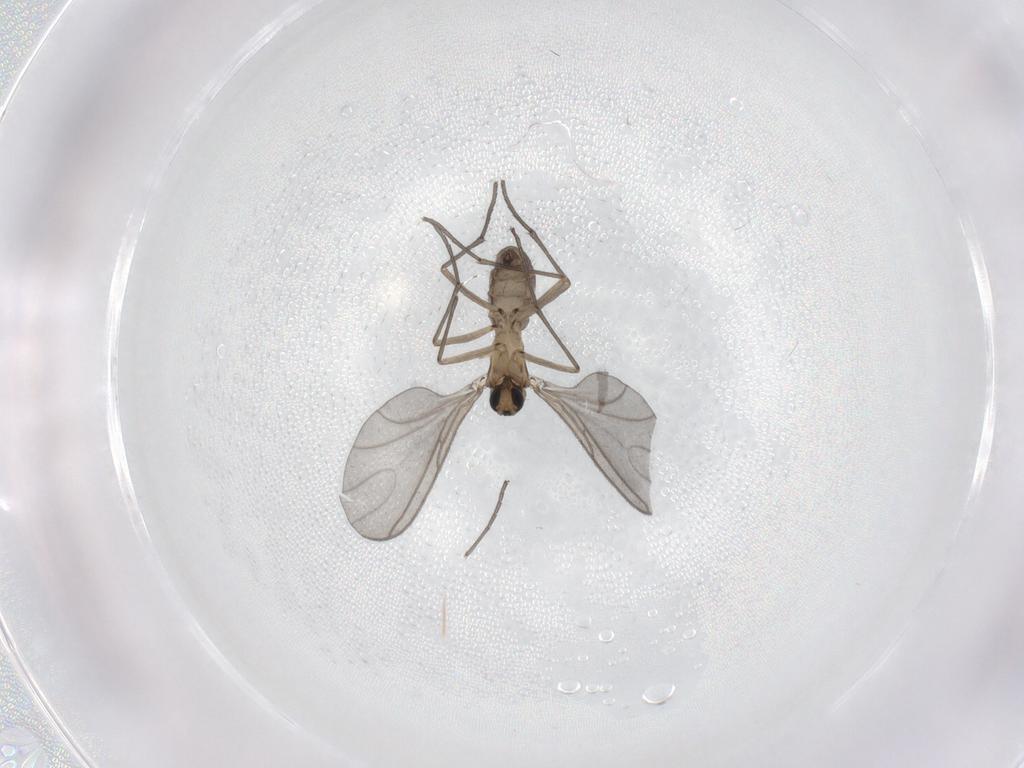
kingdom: Animalia
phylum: Arthropoda
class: Insecta
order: Diptera
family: Sciaridae
